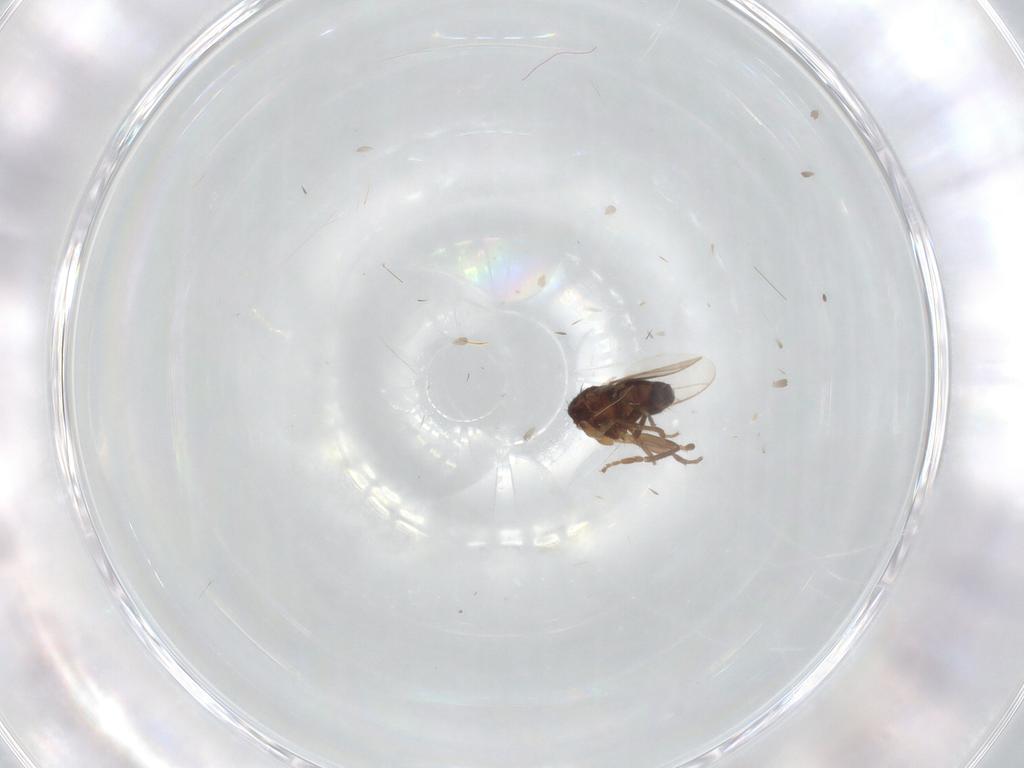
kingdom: Animalia
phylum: Arthropoda
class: Insecta
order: Diptera
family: Sphaeroceridae
